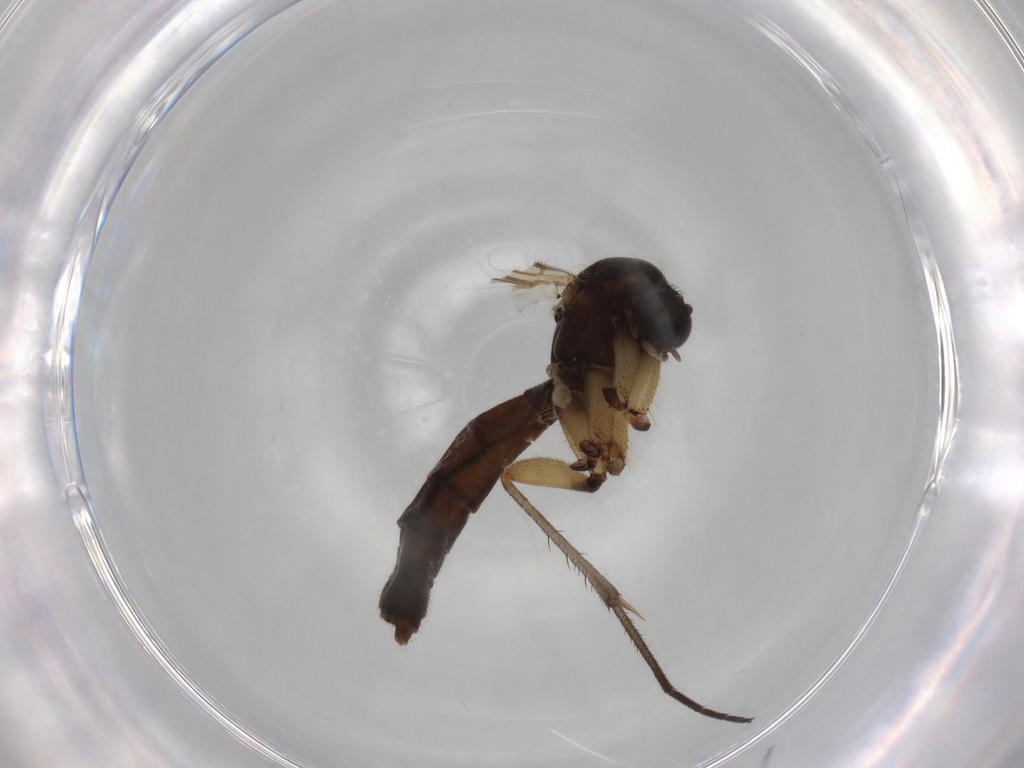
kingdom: Animalia
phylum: Arthropoda
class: Insecta
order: Diptera
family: Mycetophilidae
